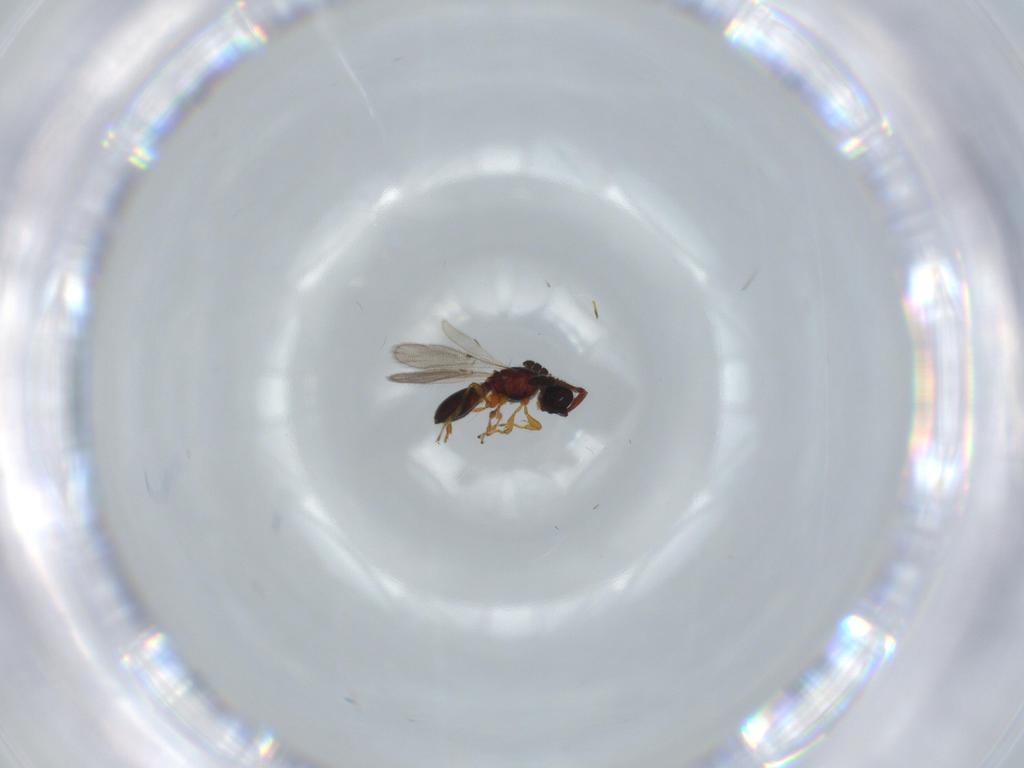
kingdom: Animalia
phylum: Arthropoda
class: Insecta
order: Hymenoptera
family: Diapriidae
